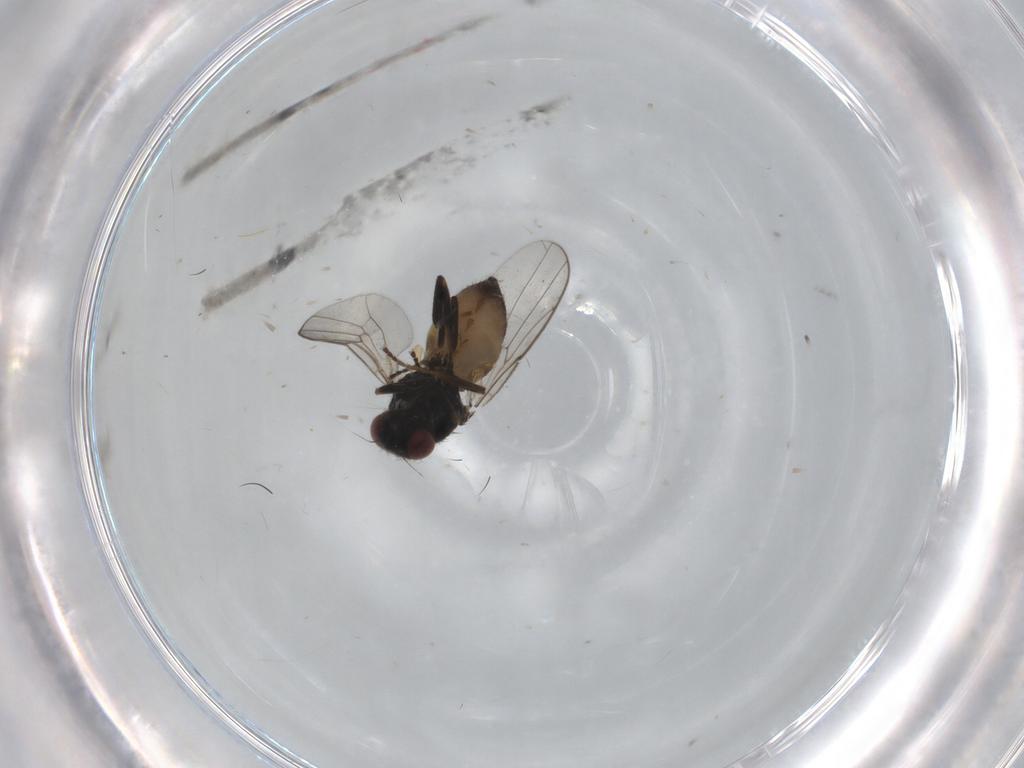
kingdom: Animalia
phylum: Arthropoda
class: Insecta
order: Diptera
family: Chloropidae
